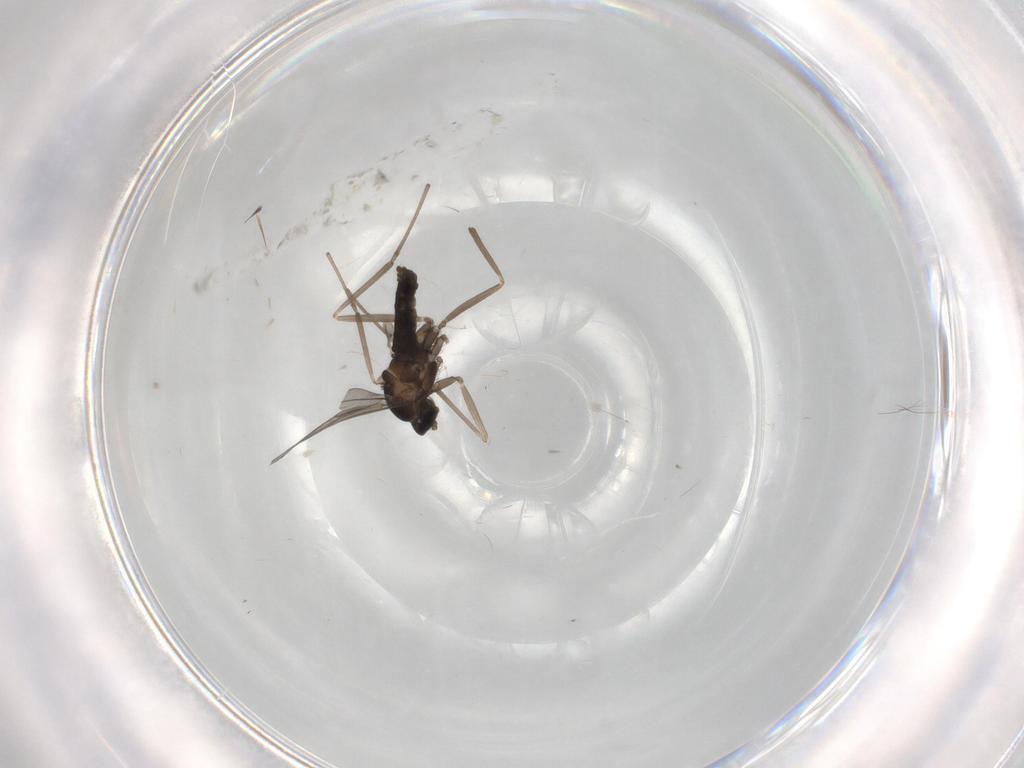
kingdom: Animalia
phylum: Arthropoda
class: Insecta
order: Diptera
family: Cecidomyiidae
